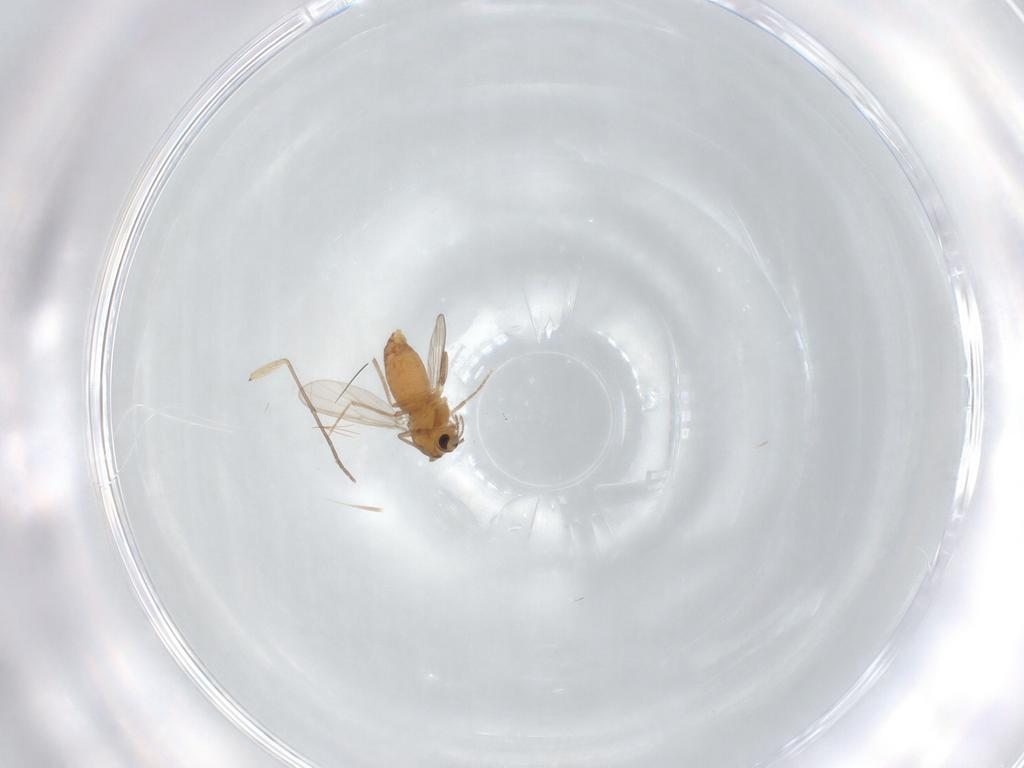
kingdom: Animalia
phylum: Arthropoda
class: Insecta
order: Diptera
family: Chironomidae
